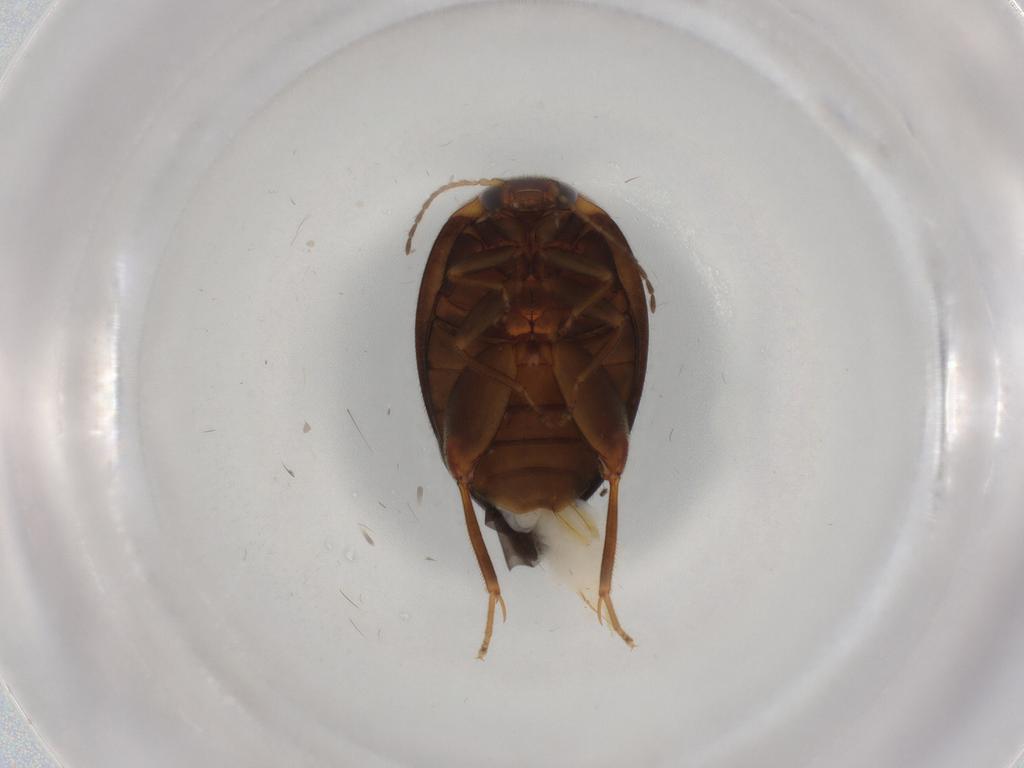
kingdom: Animalia
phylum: Arthropoda
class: Insecta
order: Coleoptera
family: Scirtidae
